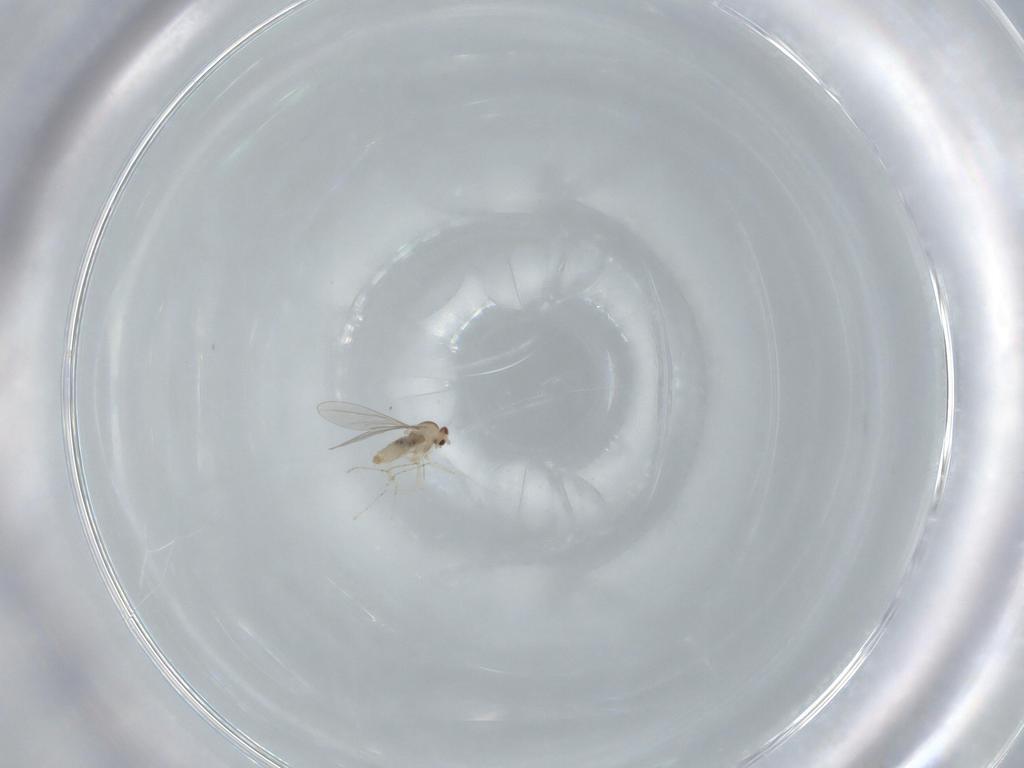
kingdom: Animalia
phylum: Arthropoda
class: Insecta
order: Diptera
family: Cecidomyiidae
